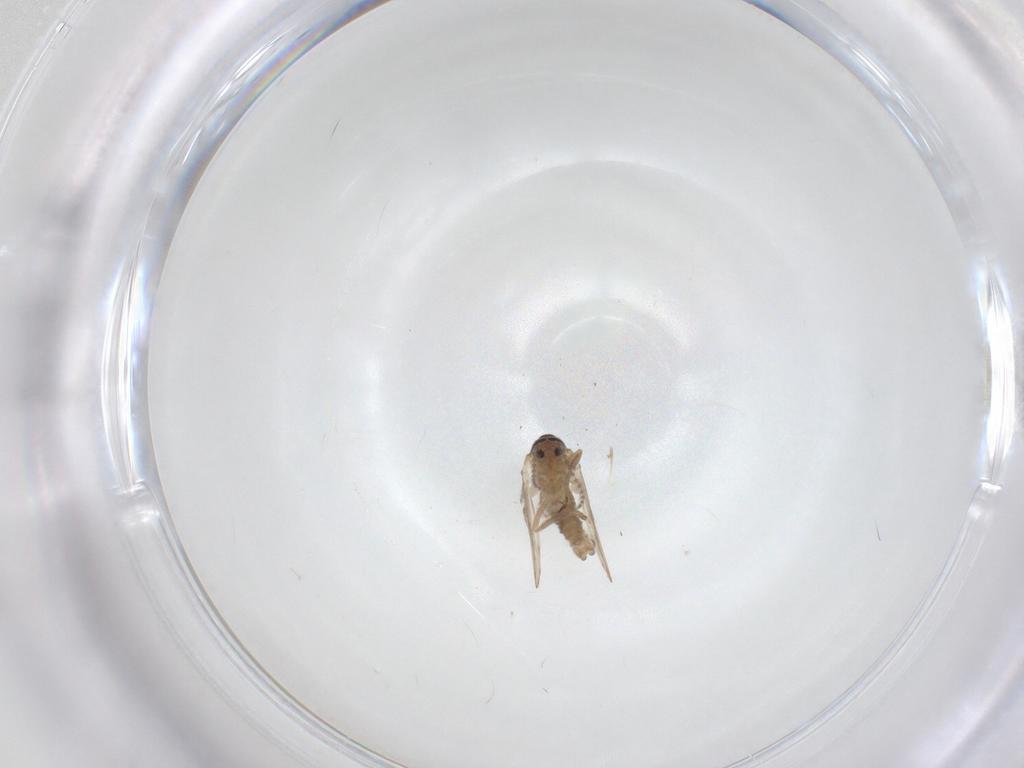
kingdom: Animalia
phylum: Arthropoda
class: Insecta
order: Diptera
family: Psychodidae
